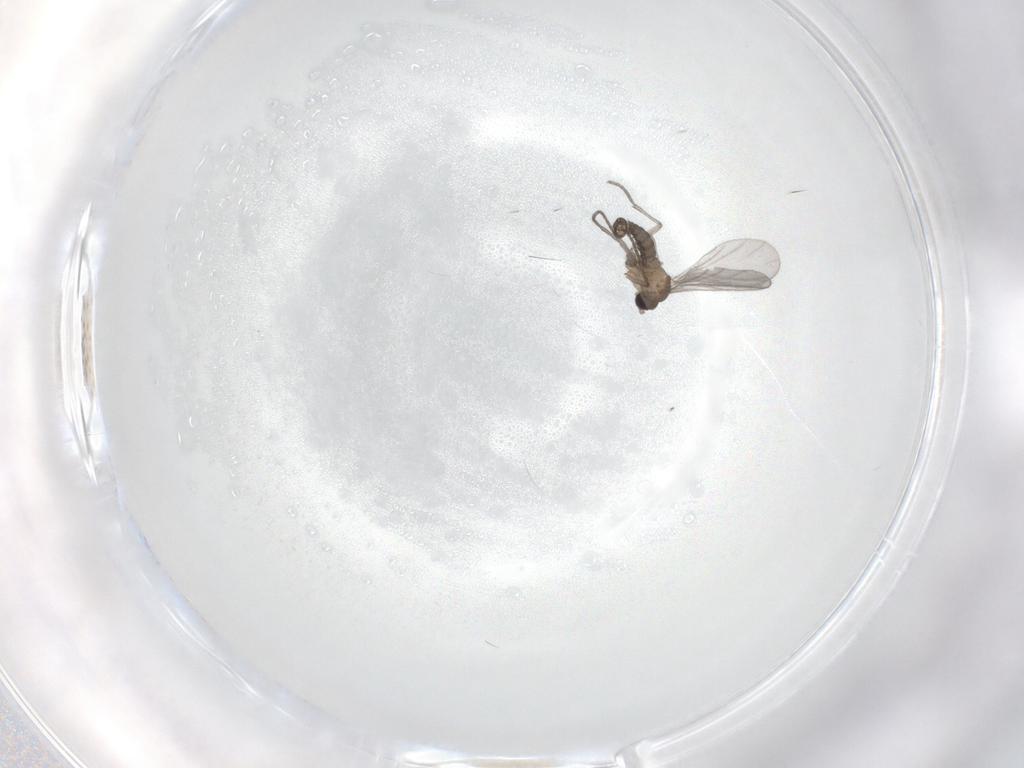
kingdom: Animalia
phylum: Arthropoda
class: Insecta
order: Diptera
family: Sciaridae
